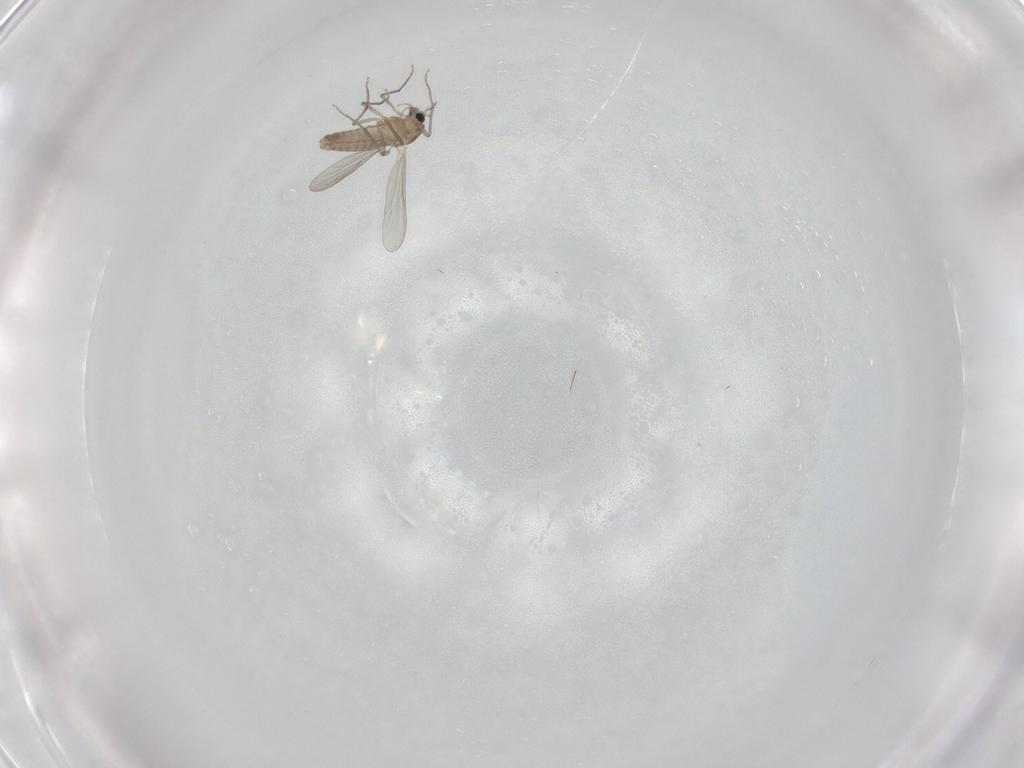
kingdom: Animalia
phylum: Arthropoda
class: Insecta
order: Diptera
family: Chironomidae
